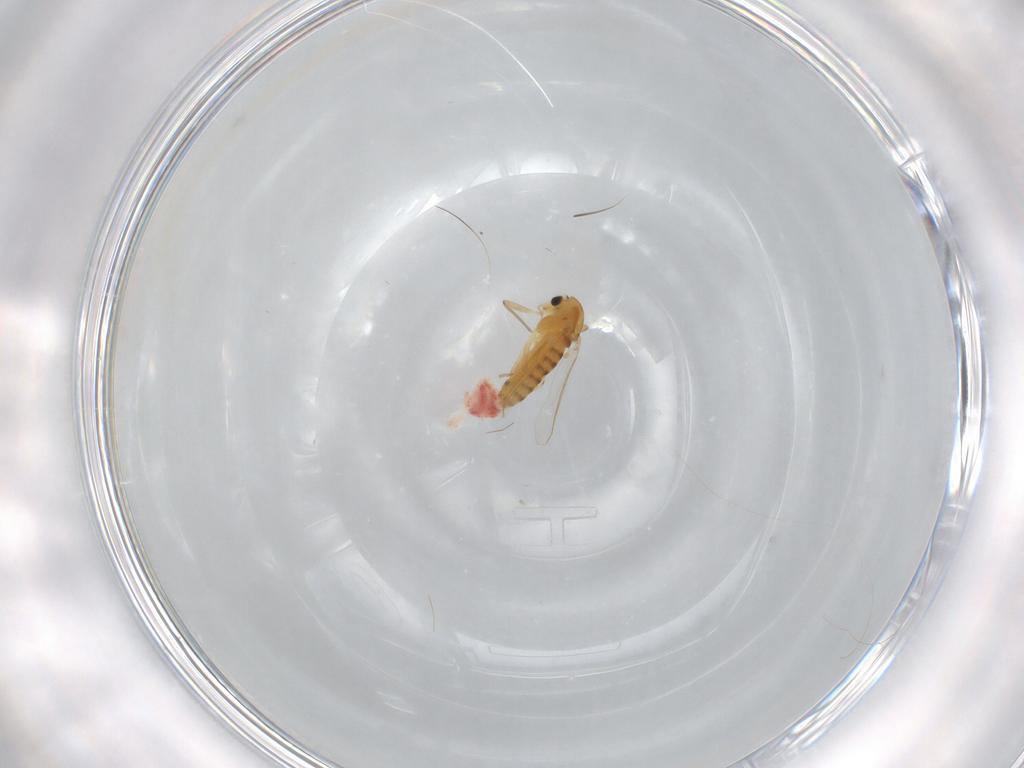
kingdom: Animalia
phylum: Arthropoda
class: Insecta
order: Diptera
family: Chironomidae
